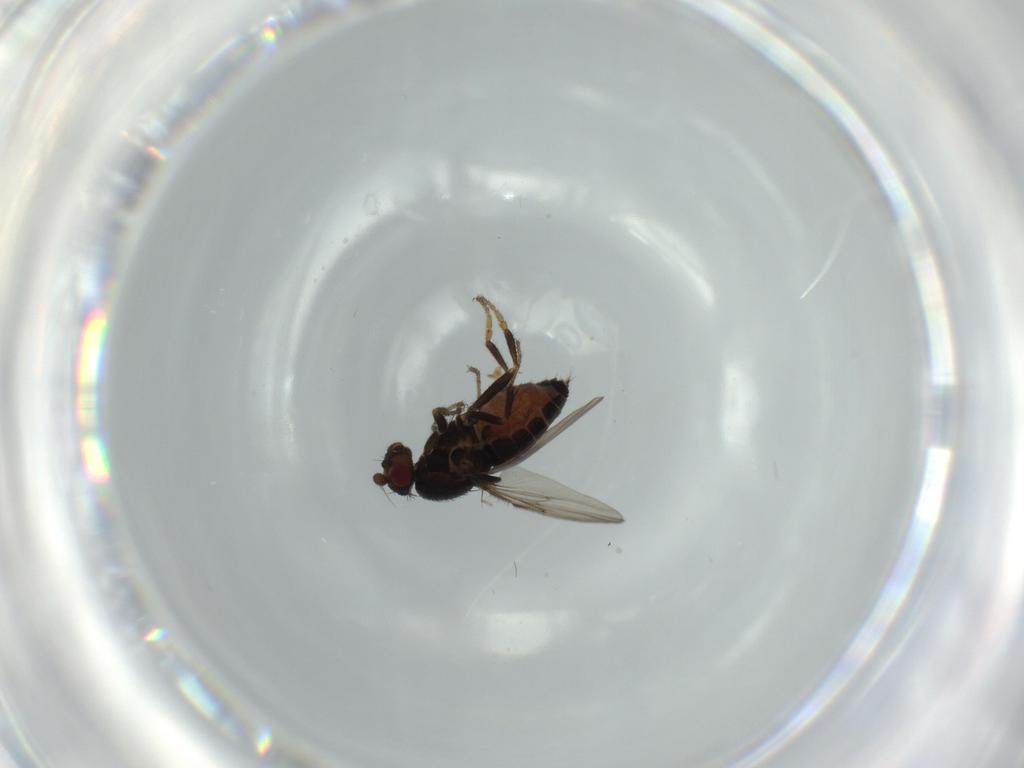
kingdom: Animalia
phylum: Arthropoda
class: Insecta
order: Diptera
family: Sphaeroceridae
